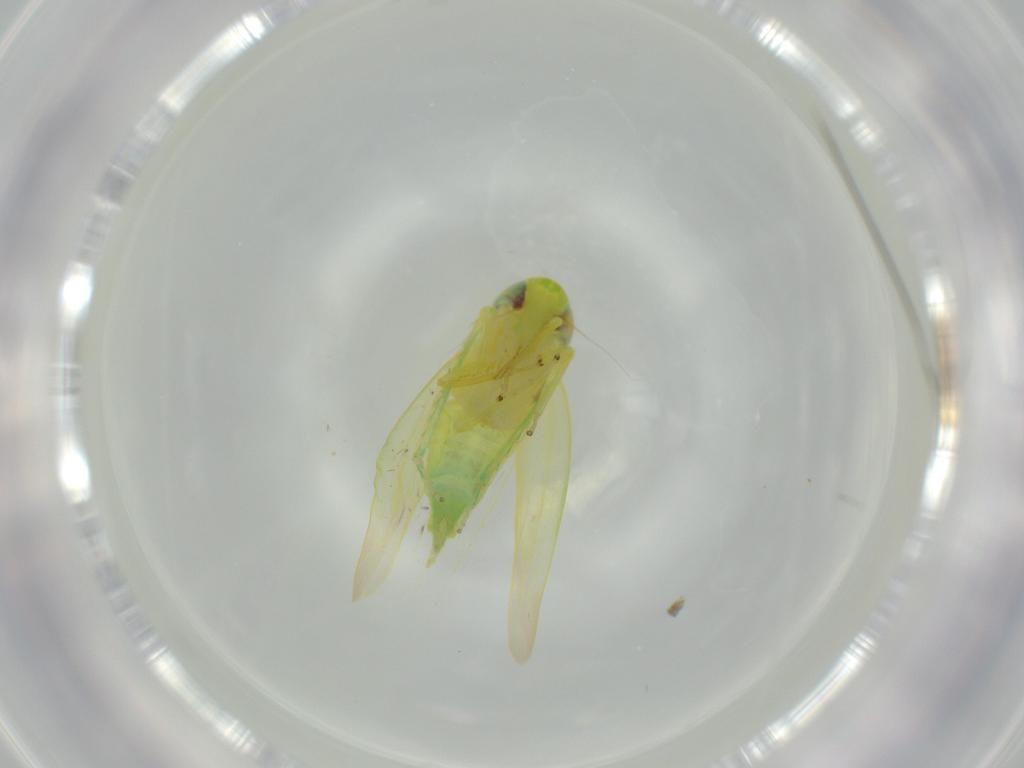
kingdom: Animalia
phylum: Arthropoda
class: Insecta
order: Hemiptera
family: Cicadellidae
